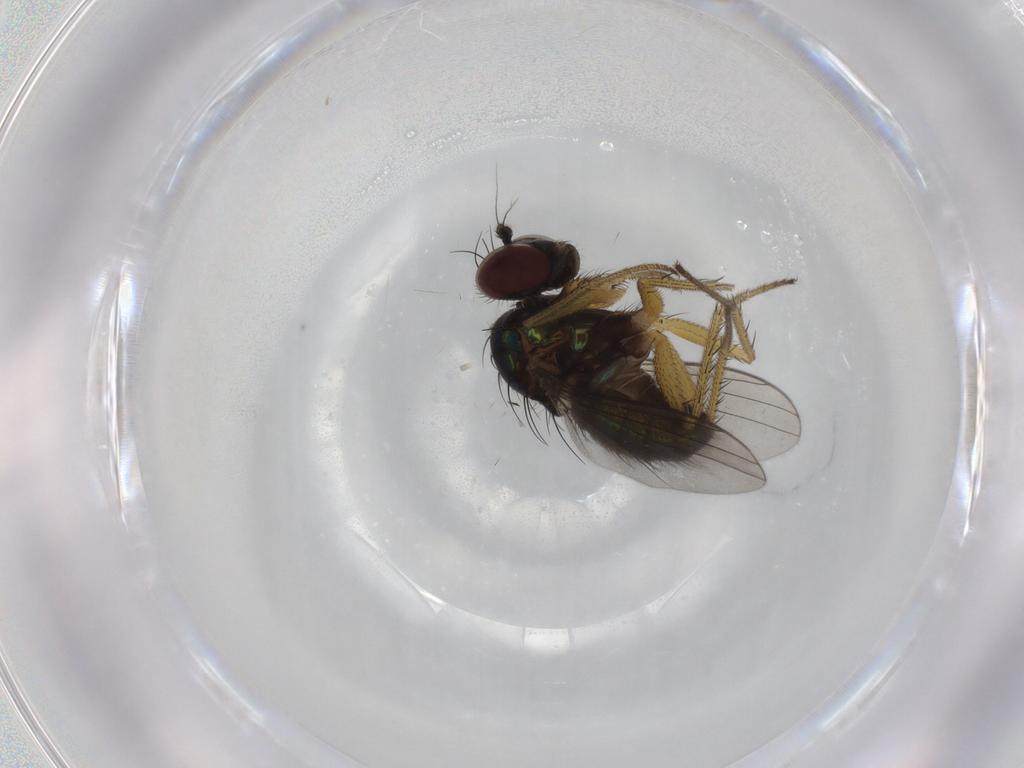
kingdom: Animalia
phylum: Arthropoda
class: Insecta
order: Diptera
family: Dolichopodidae
